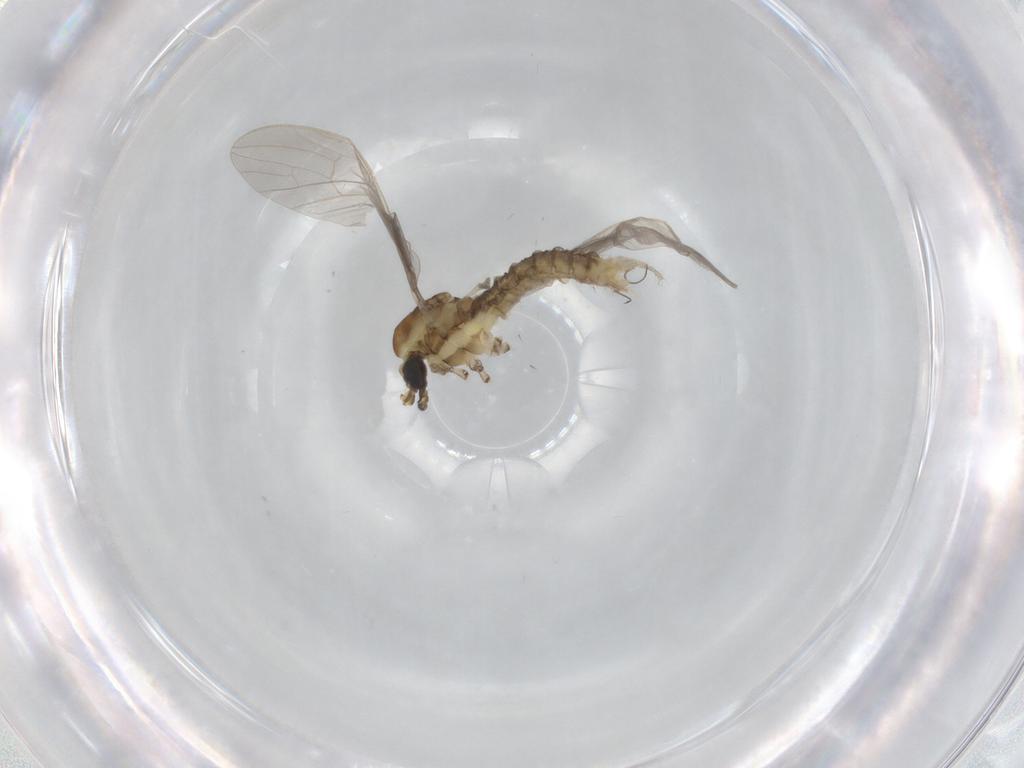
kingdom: Animalia
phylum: Arthropoda
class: Insecta
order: Diptera
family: Limoniidae
